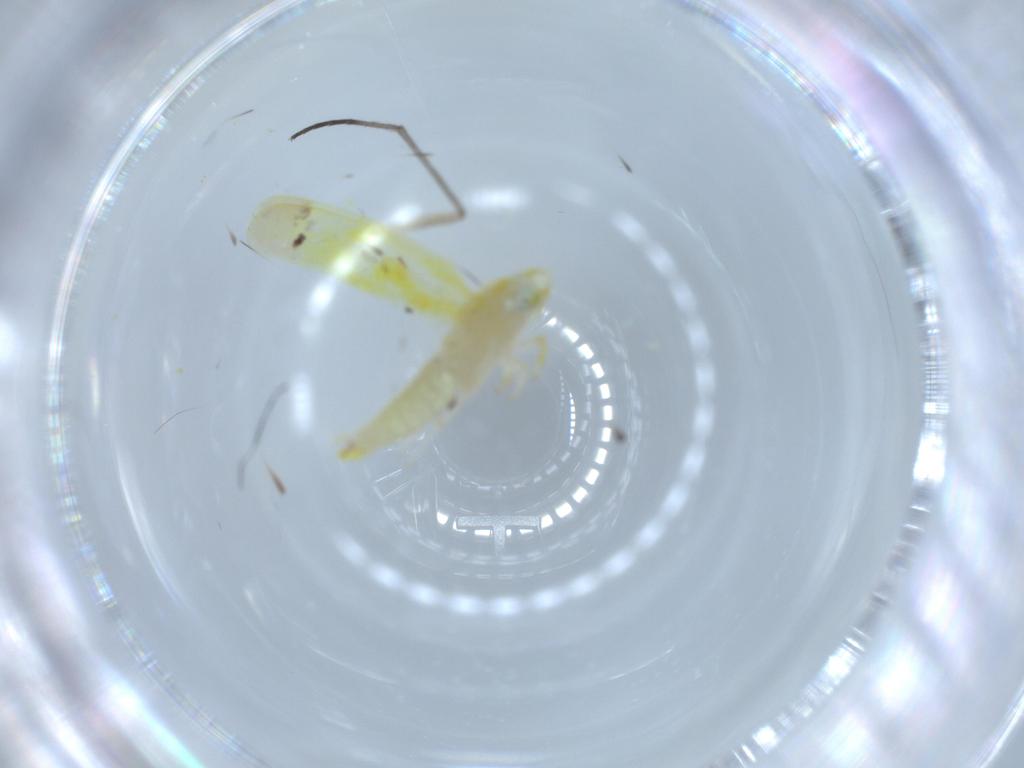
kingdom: Animalia
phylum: Arthropoda
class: Insecta
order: Hemiptera
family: Cicadellidae
